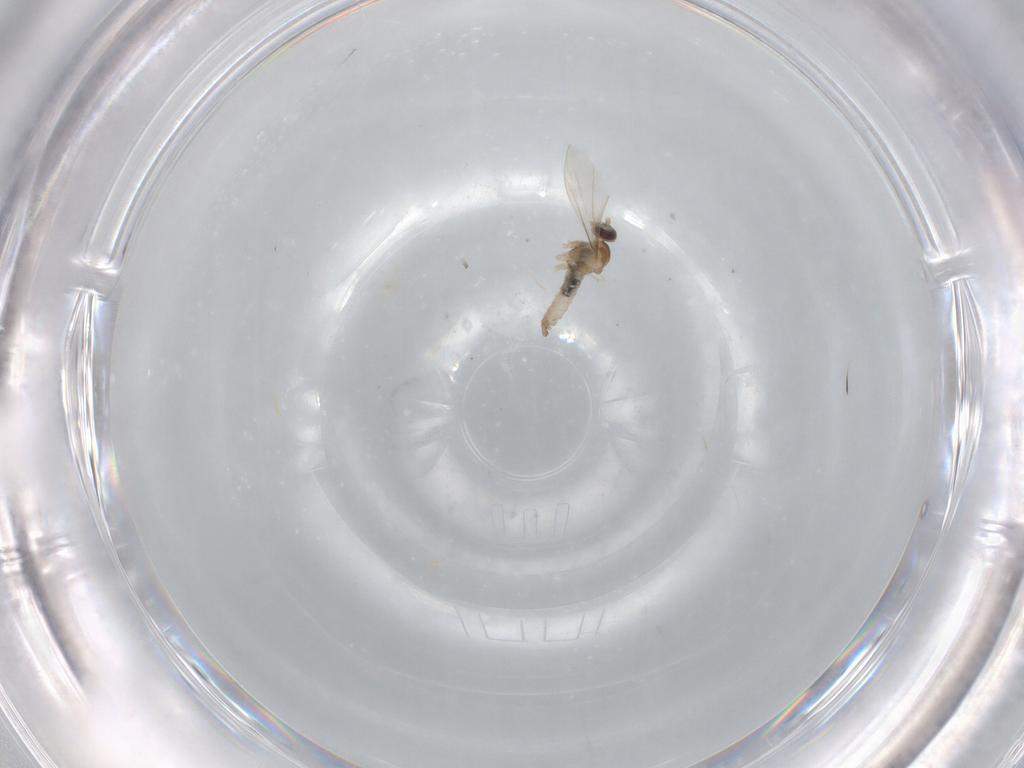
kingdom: Animalia
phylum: Arthropoda
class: Insecta
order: Diptera
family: Cecidomyiidae
